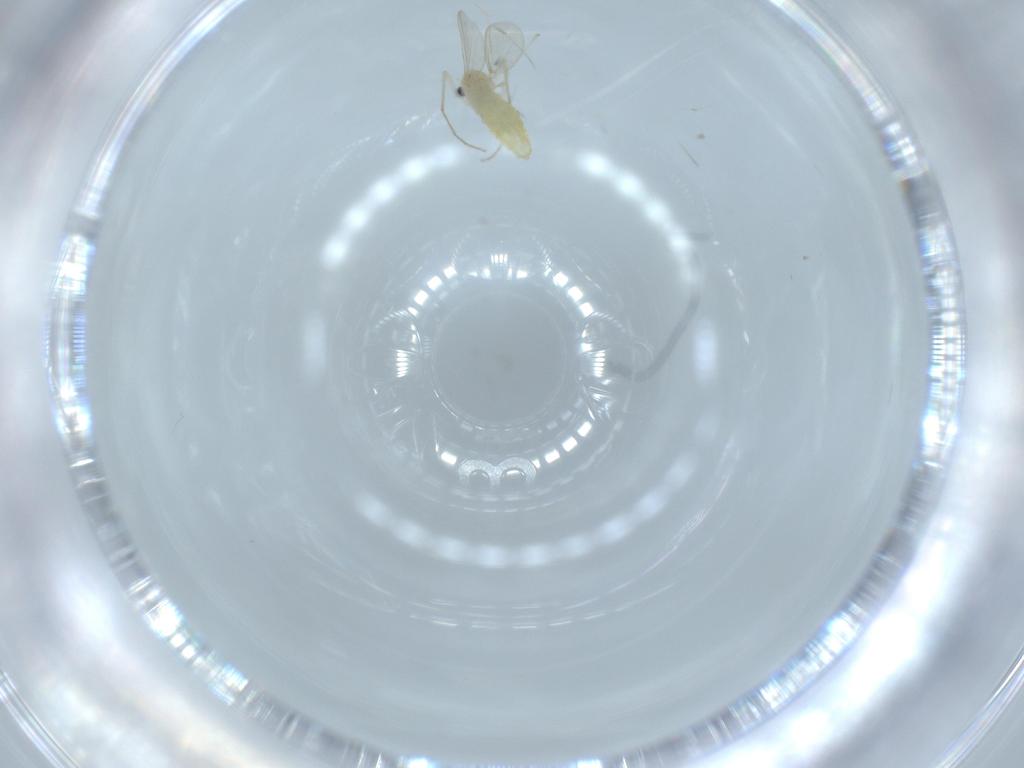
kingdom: Animalia
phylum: Arthropoda
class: Insecta
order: Diptera
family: Chironomidae
